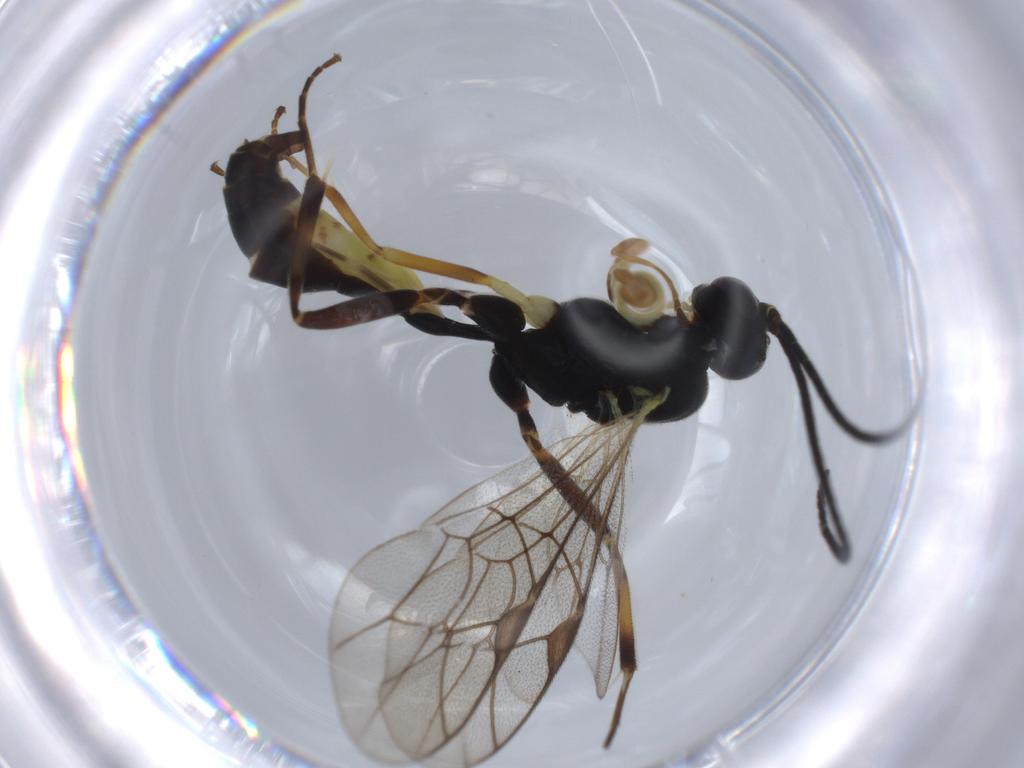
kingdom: Animalia
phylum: Arthropoda
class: Insecta
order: Hymenoptera
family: Ichneumonidae
